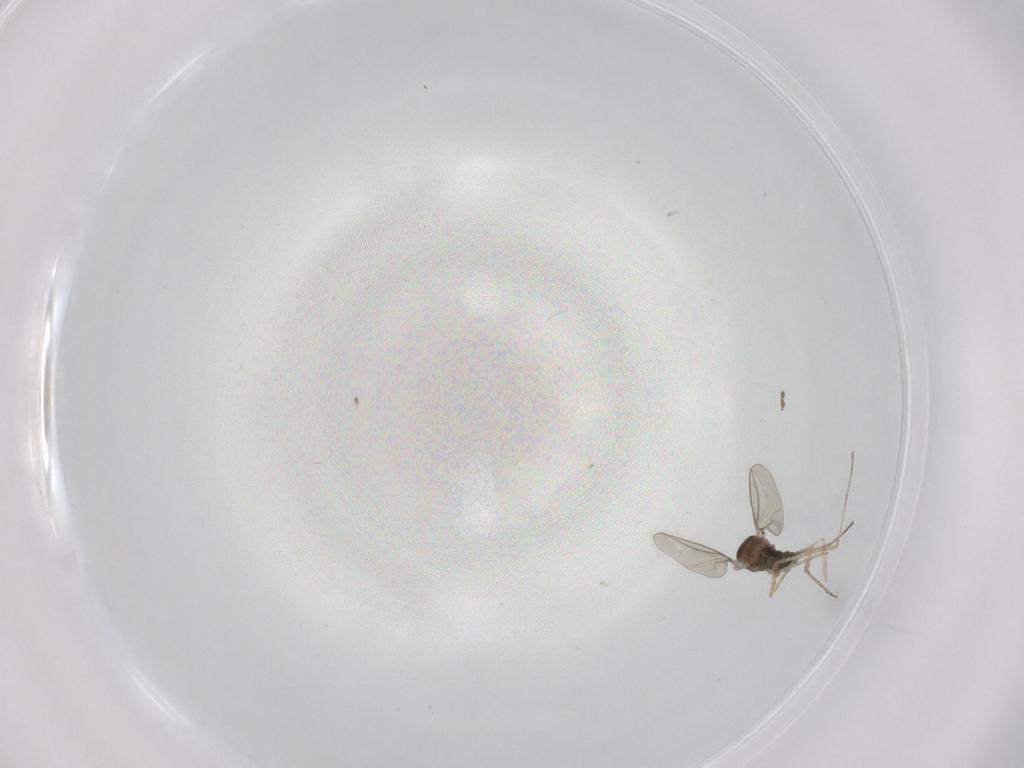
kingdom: Animalia
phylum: Arthropoda
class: Insecta
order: Diptera
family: Cecidomyiidae
